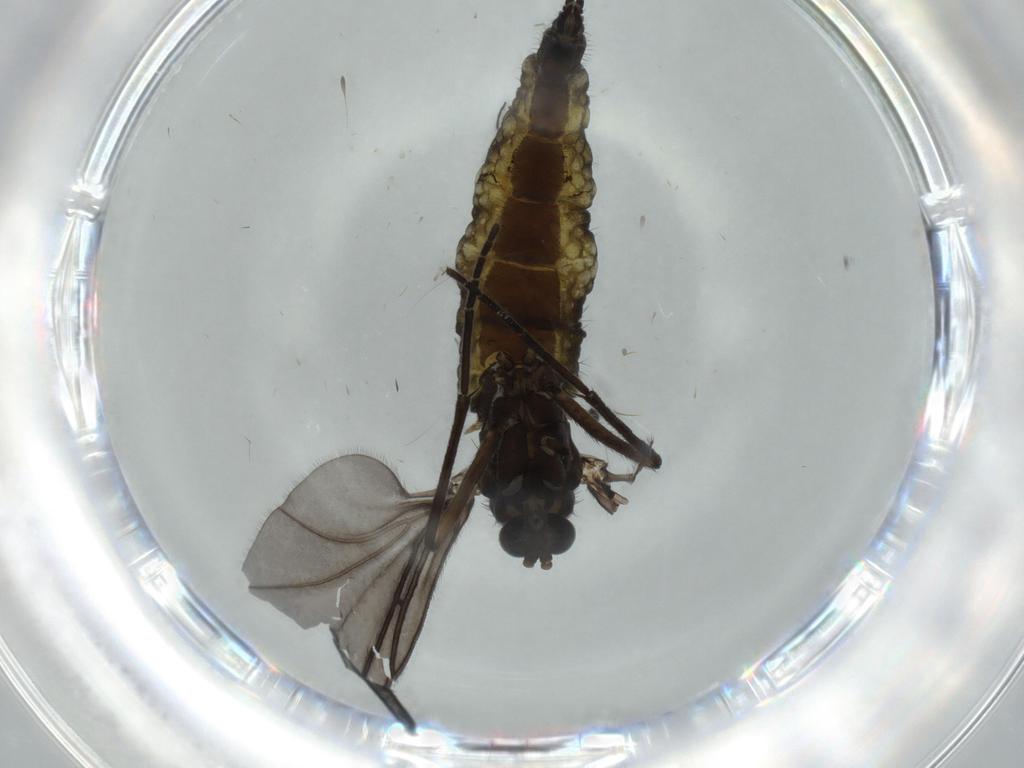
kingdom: Animalia
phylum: Arthropoda
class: Insecta
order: Diptera
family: Sciaridae
